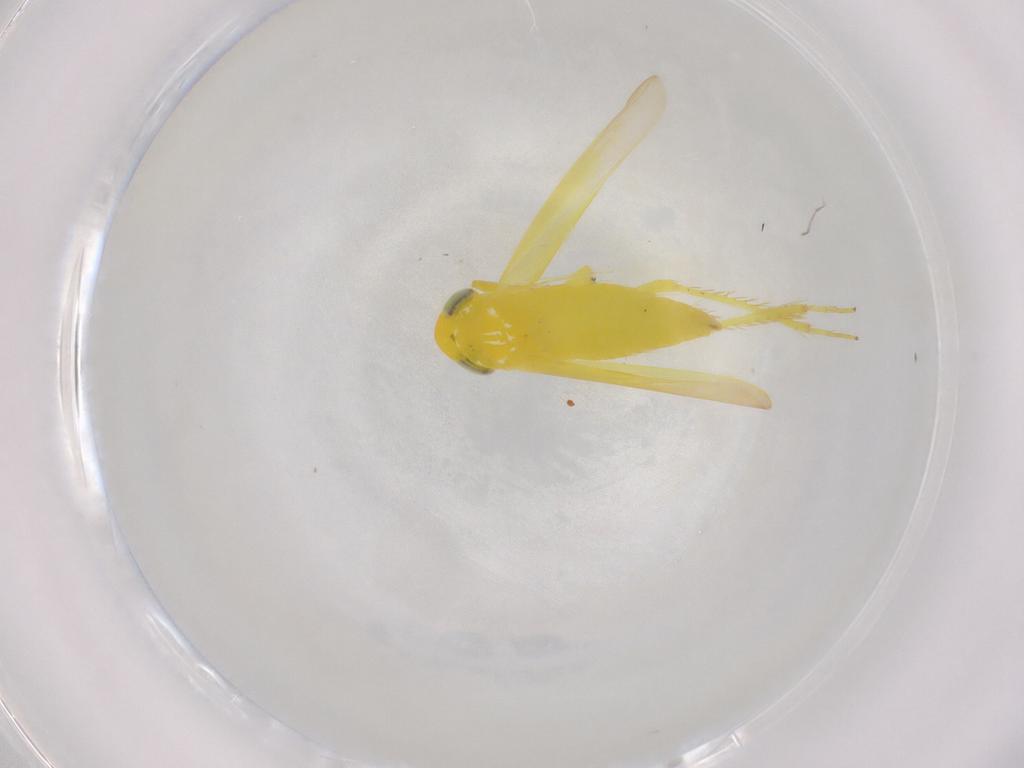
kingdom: Animalia
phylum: Arthropoda
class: Insecta
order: Hemiptera
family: Cicadellidae
